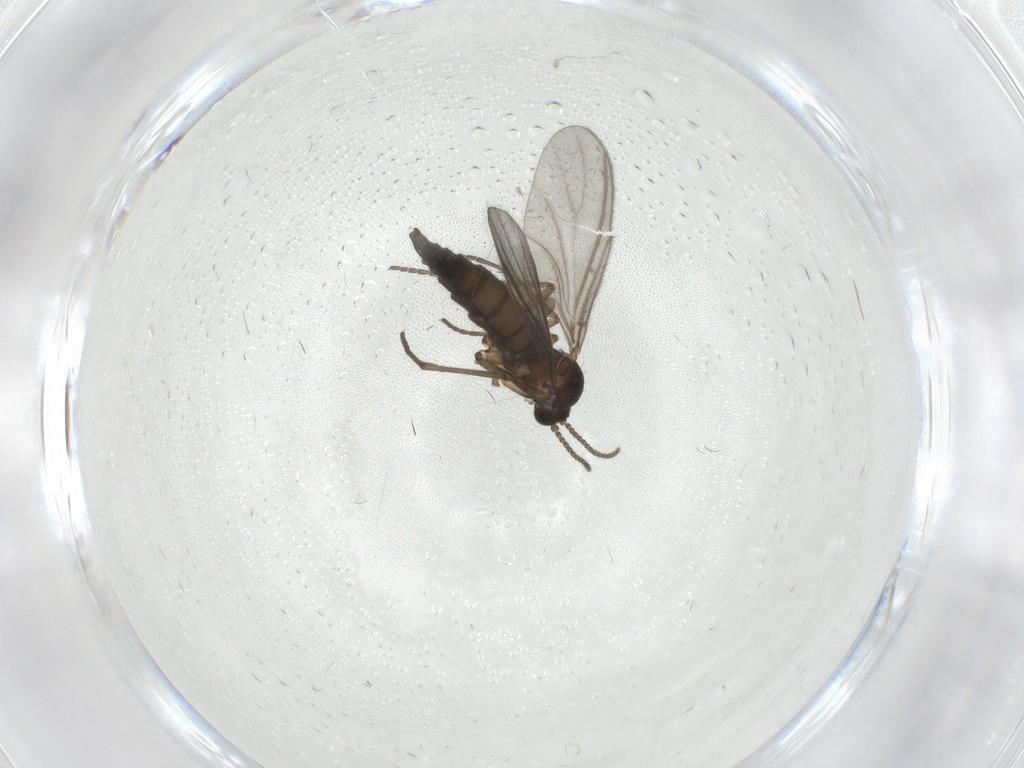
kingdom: Animalia
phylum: Arthropoda
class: Insecta
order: Diptera
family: Sciaridae
